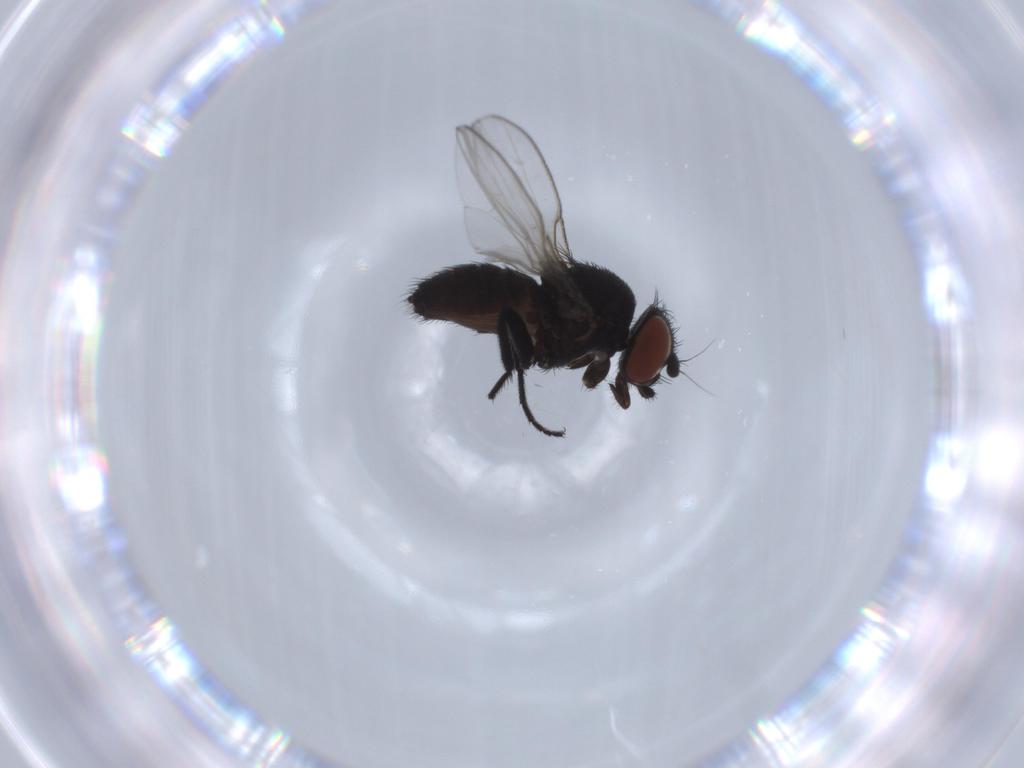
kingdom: Animalia
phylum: Arthropoda
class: Insecta
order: Diptera
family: Milichiidae
